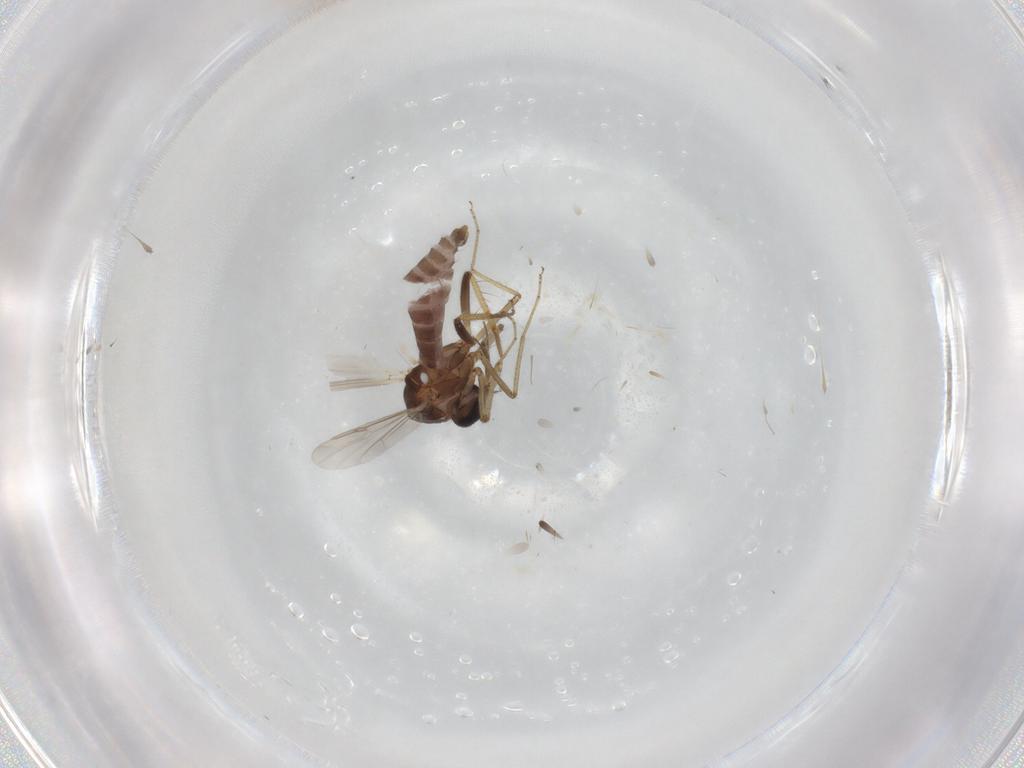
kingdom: Animalia
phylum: Arthropoda
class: Insecta
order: Diptera
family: Ceratopogonidae
